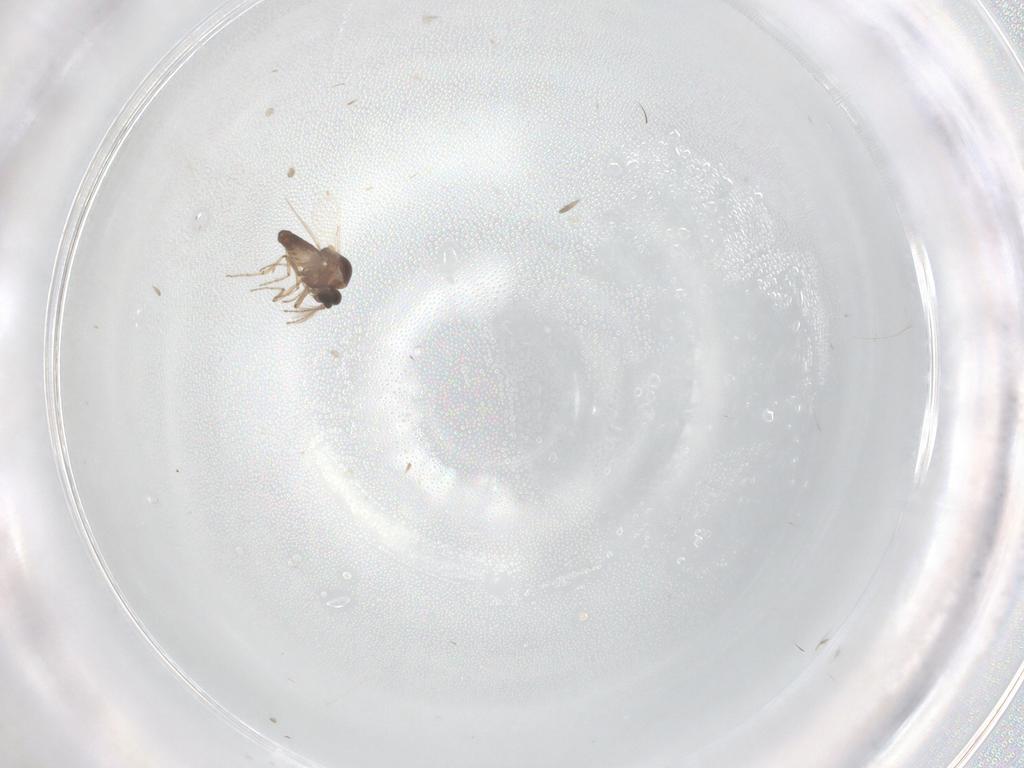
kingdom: Animalia
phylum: Arthropoda
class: Insecta
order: Diptera
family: Ceratopogonidae
